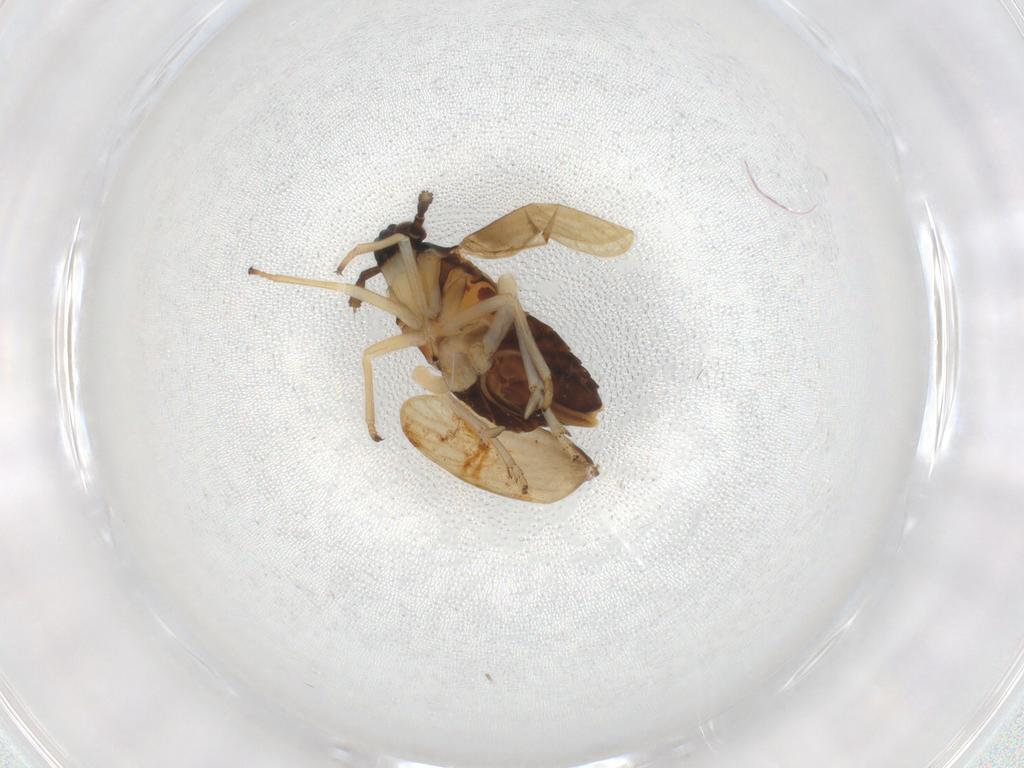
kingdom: Animalia
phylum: Arthropoda
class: Insecta
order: Hemiptera
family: Delphacidae
